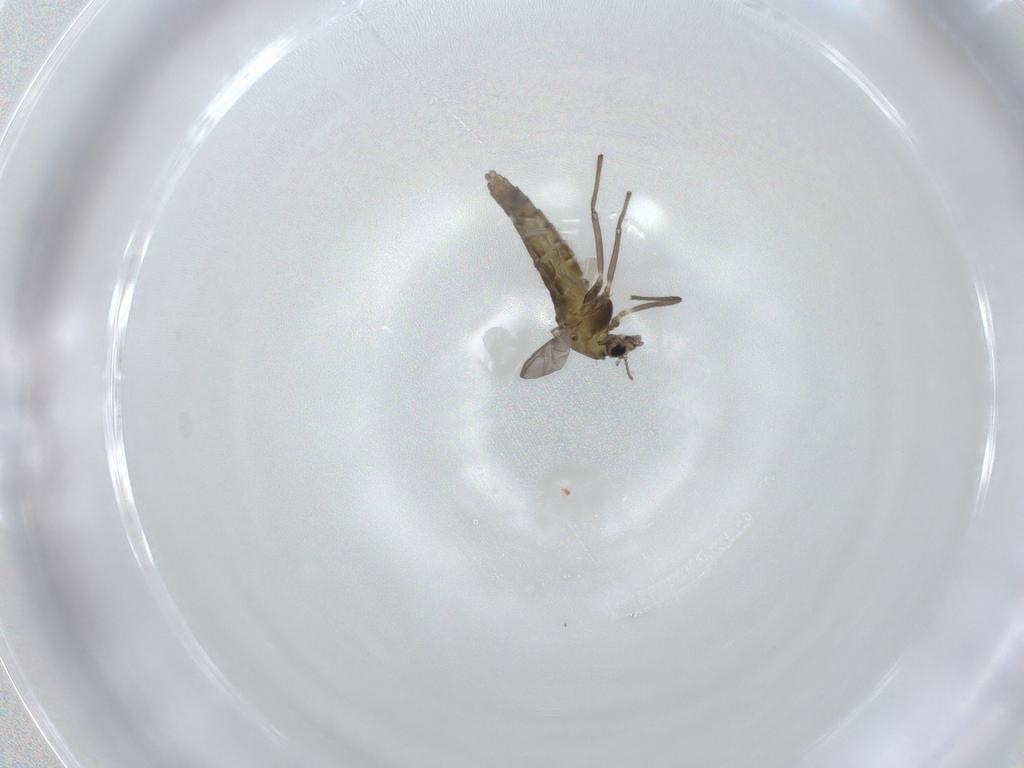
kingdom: Animalia
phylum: Arthropoda
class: Insecta
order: Diptera
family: Chironomidae
